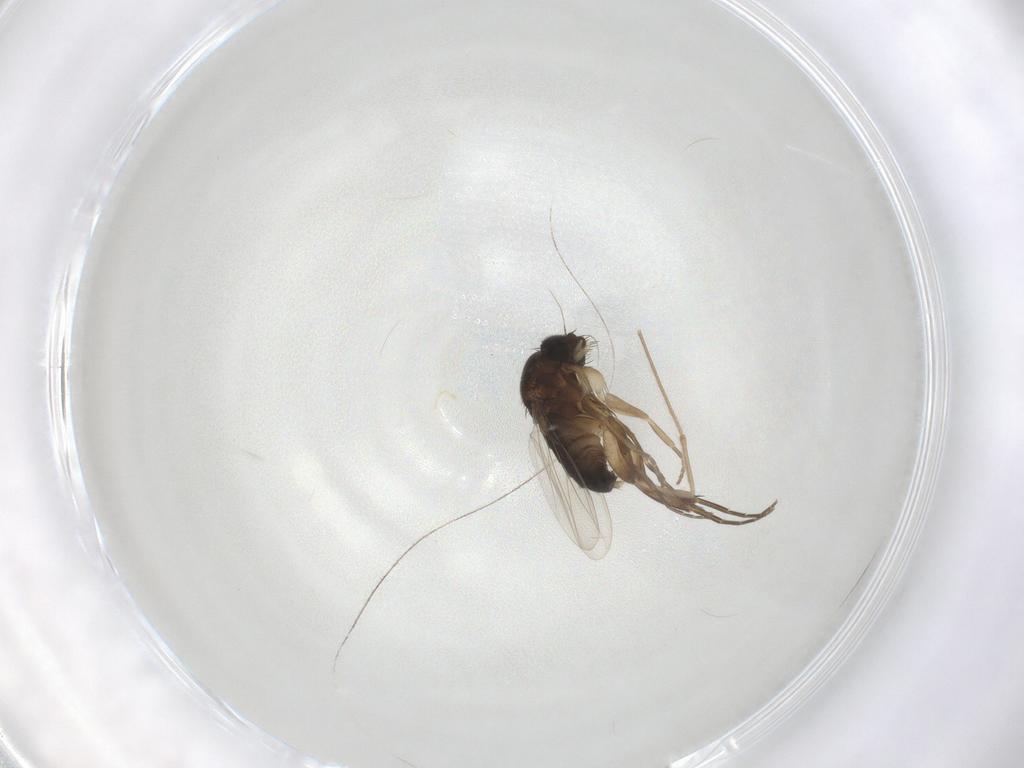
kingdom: Animalia
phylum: Arthropoda
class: Insecta
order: Diptera
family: Phoridae
